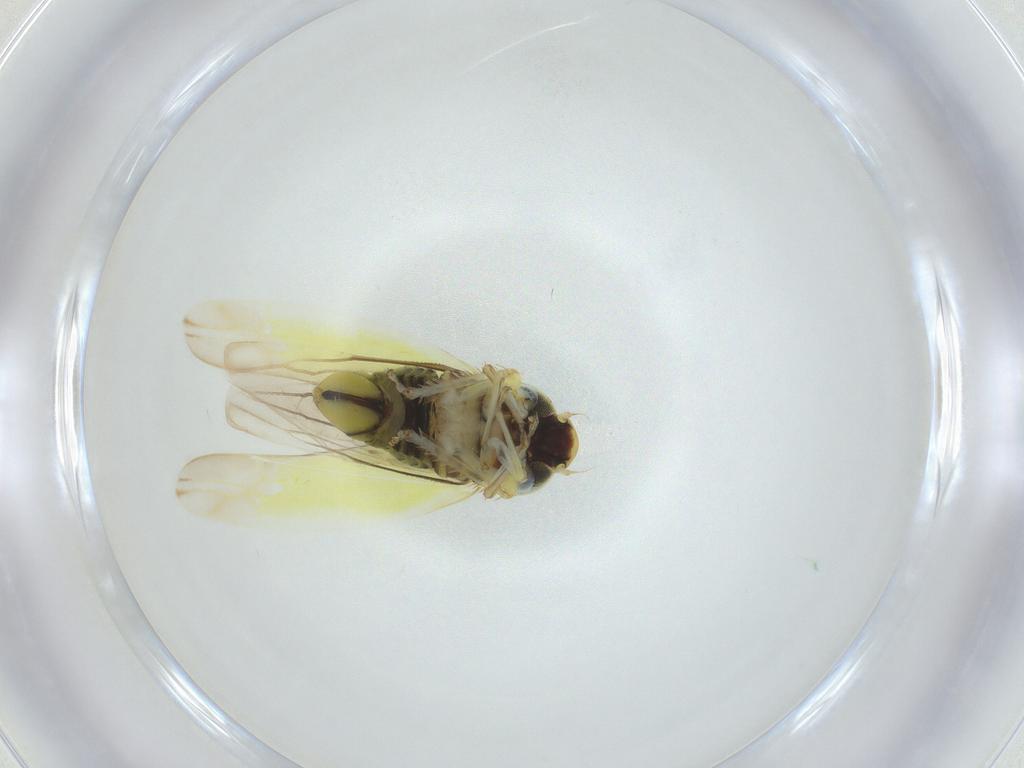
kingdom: Animalia
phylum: Arthropoda
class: Insecta
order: Hemiptera
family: Cicadellidae
